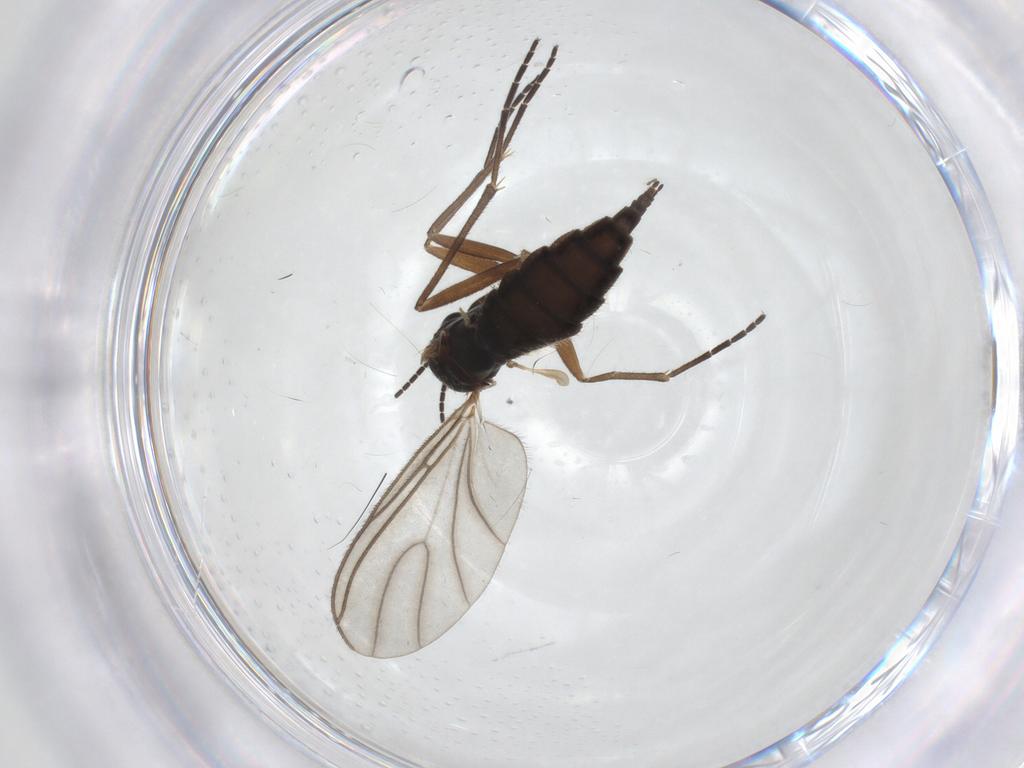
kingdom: Animalia
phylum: Arthropoda
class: Insecta
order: Diptera
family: Sciaridae
